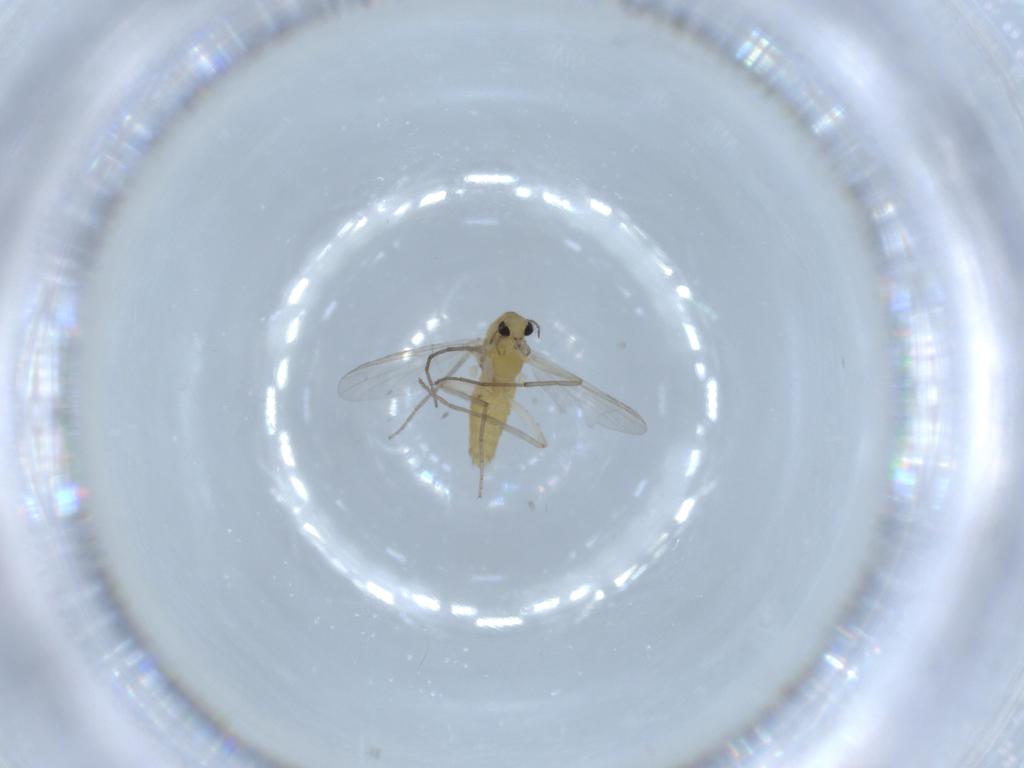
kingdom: Animalia
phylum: Arthropoda
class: Insecta
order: Diptera
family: Chironomidae
